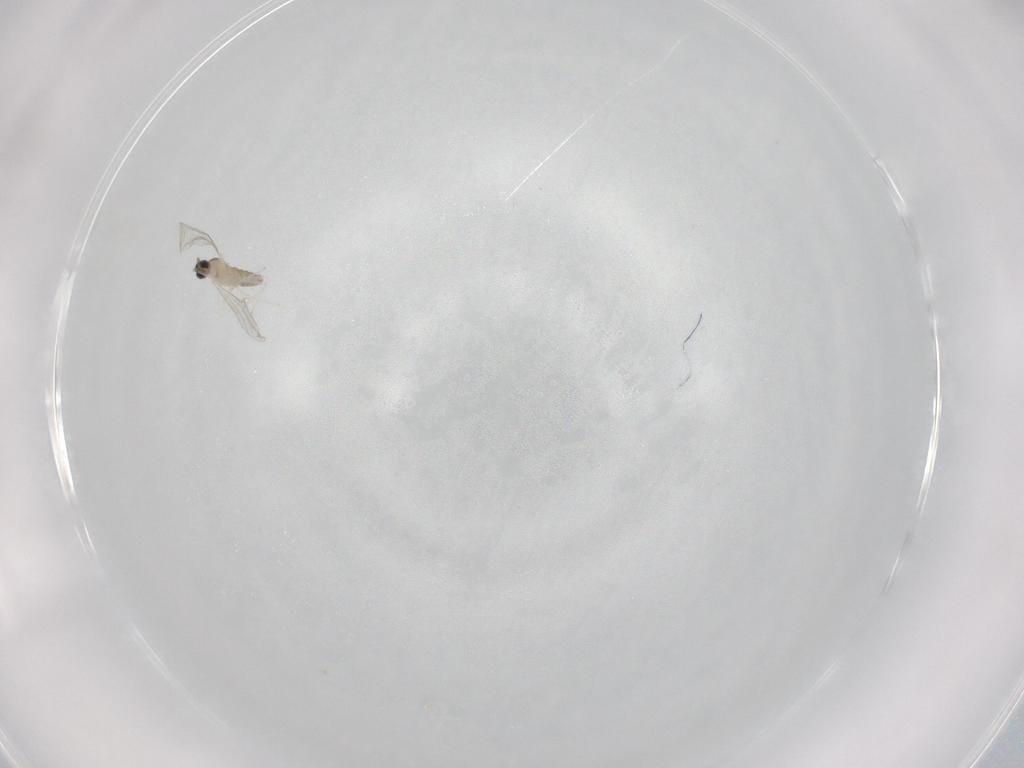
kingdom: Animalia
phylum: Arthropoda
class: Insecta
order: Diptera
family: Cecidomyiidae
